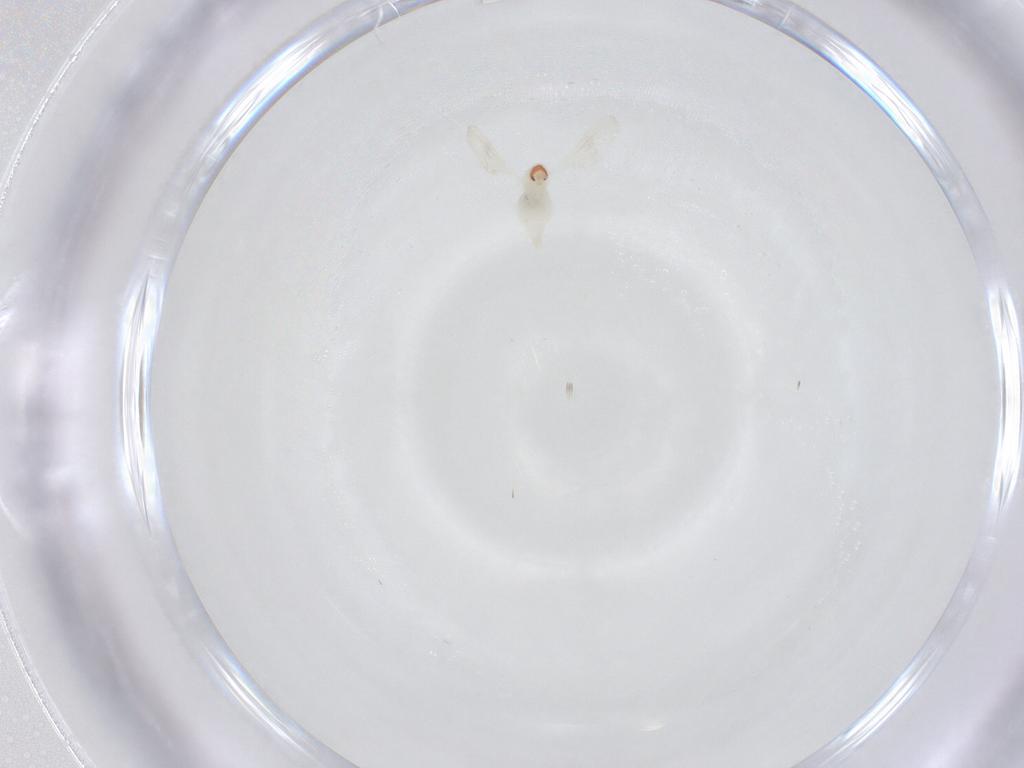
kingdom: Animalia
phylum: Arthropoda
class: Insecta
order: Diptera
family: Cecidomyiidae
